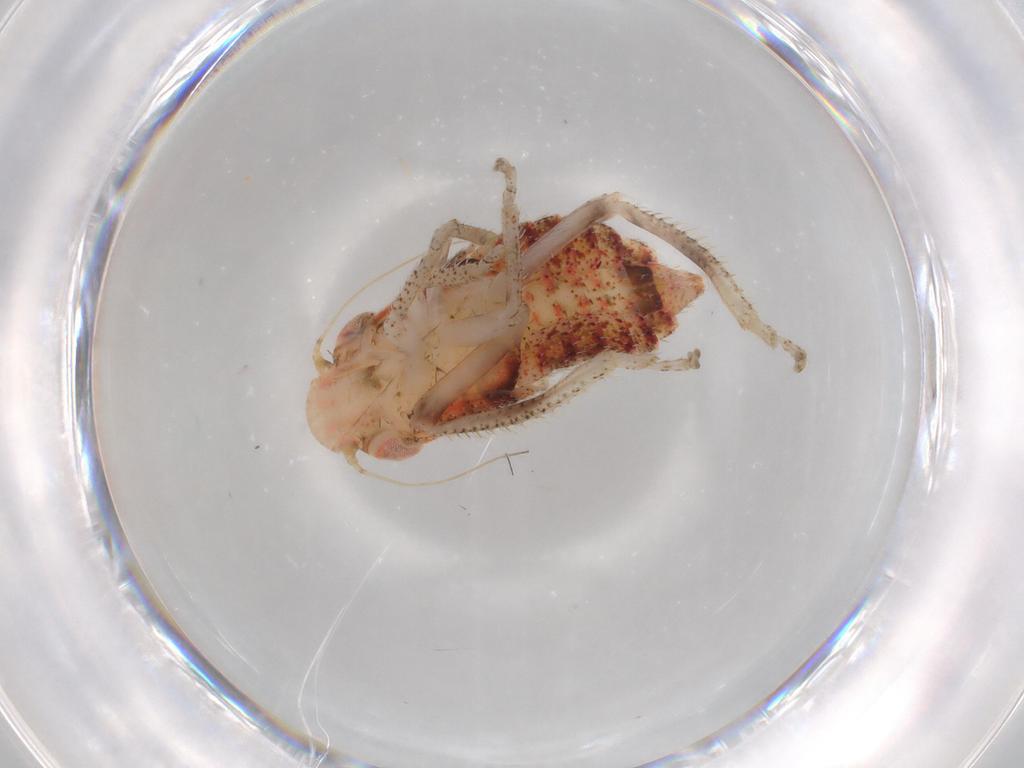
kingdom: Animalia
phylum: Arthropoda
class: Insecta
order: Hemiptera
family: Cicadellidae
